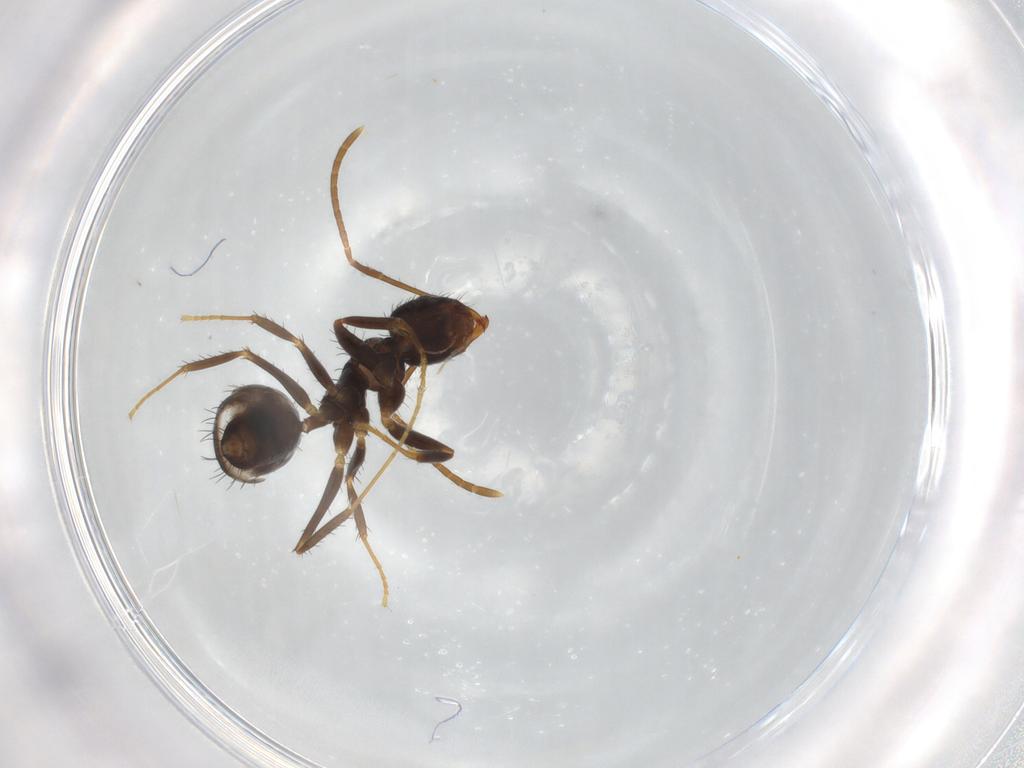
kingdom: Animalia
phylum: Arthropoda
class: Insecta
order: Hymenoptera
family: Formicidae
